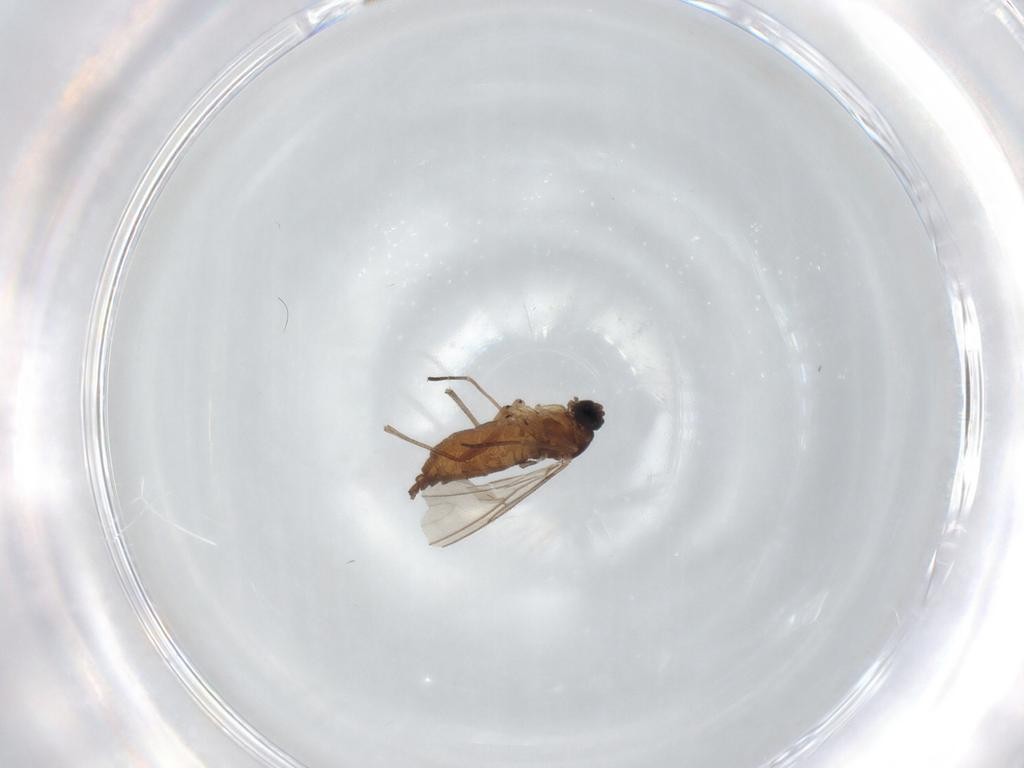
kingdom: Animalia
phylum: Arthropoda
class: Insecta
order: Diptera
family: Sciaridae
